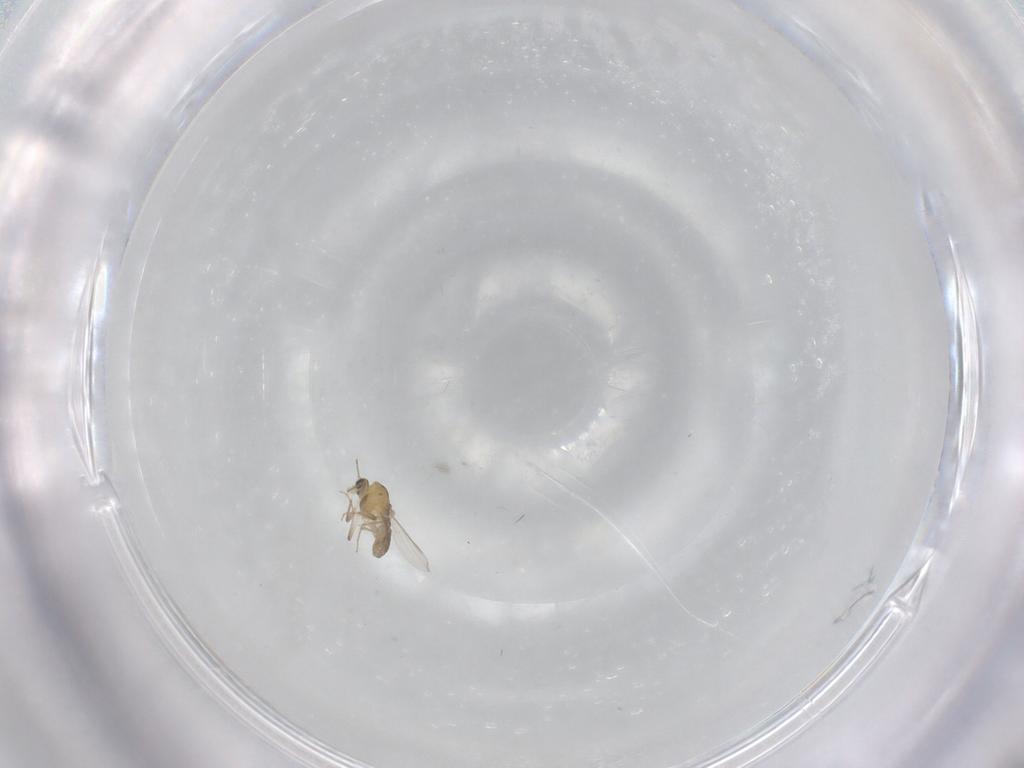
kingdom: Animalia
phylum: Arthropoda
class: Insecta
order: Diptera
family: Chironomidae
